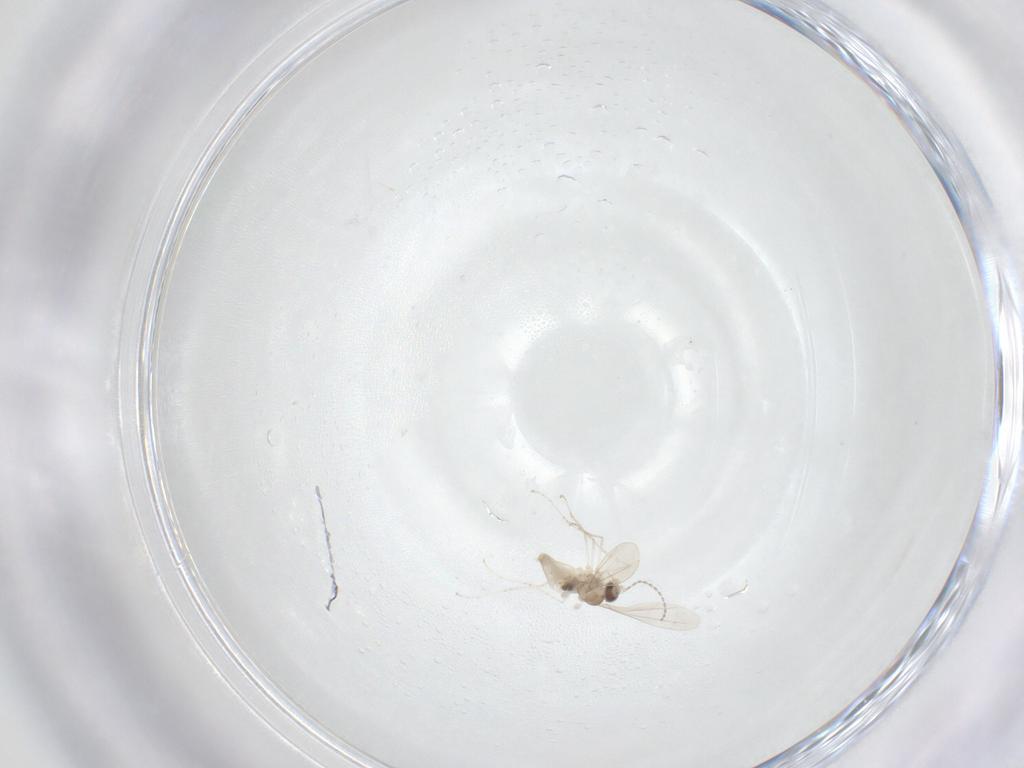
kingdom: Animalia
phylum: Arthropoda
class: Insecta
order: Diptera
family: Cecidomyiidae
